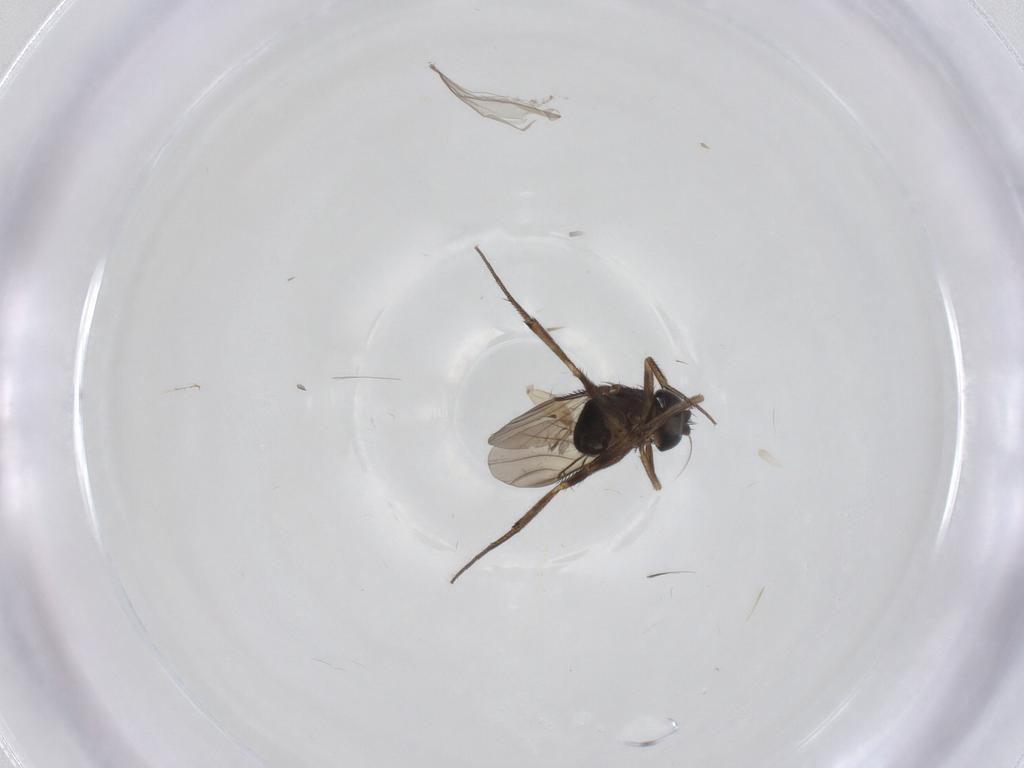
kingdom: Animalia
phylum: Arthropoda
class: Insecta
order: Diptera
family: Phoridae
